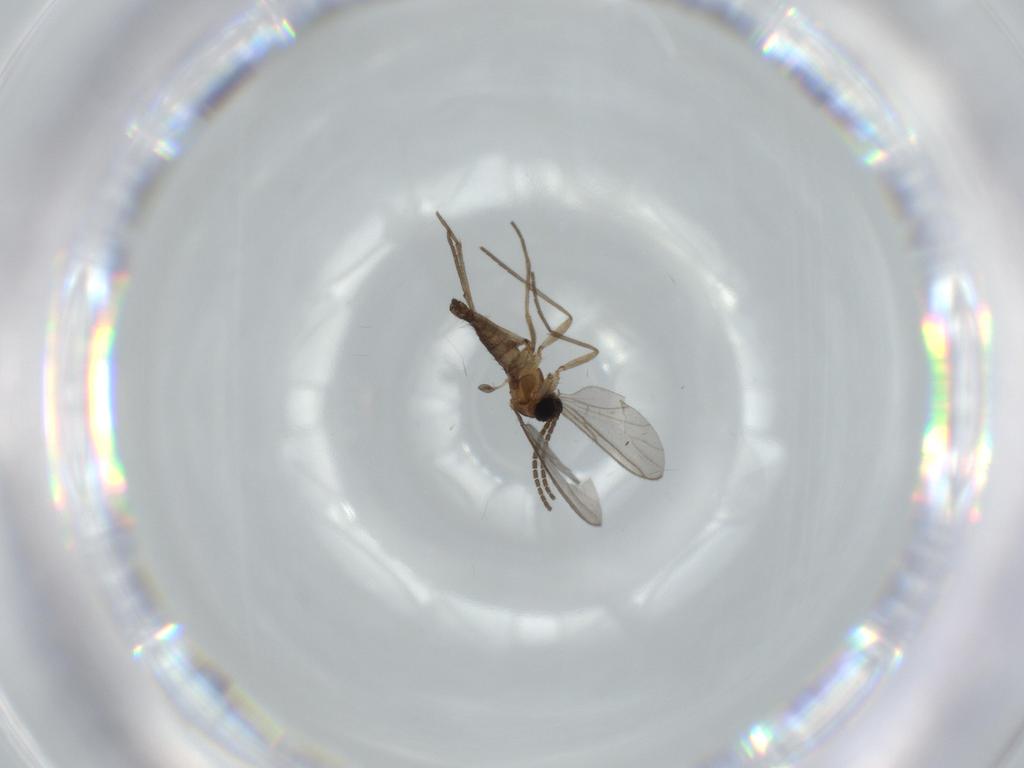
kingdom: Animalia
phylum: Arthropoda
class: Insecta
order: Diptera
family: Sciaridae
